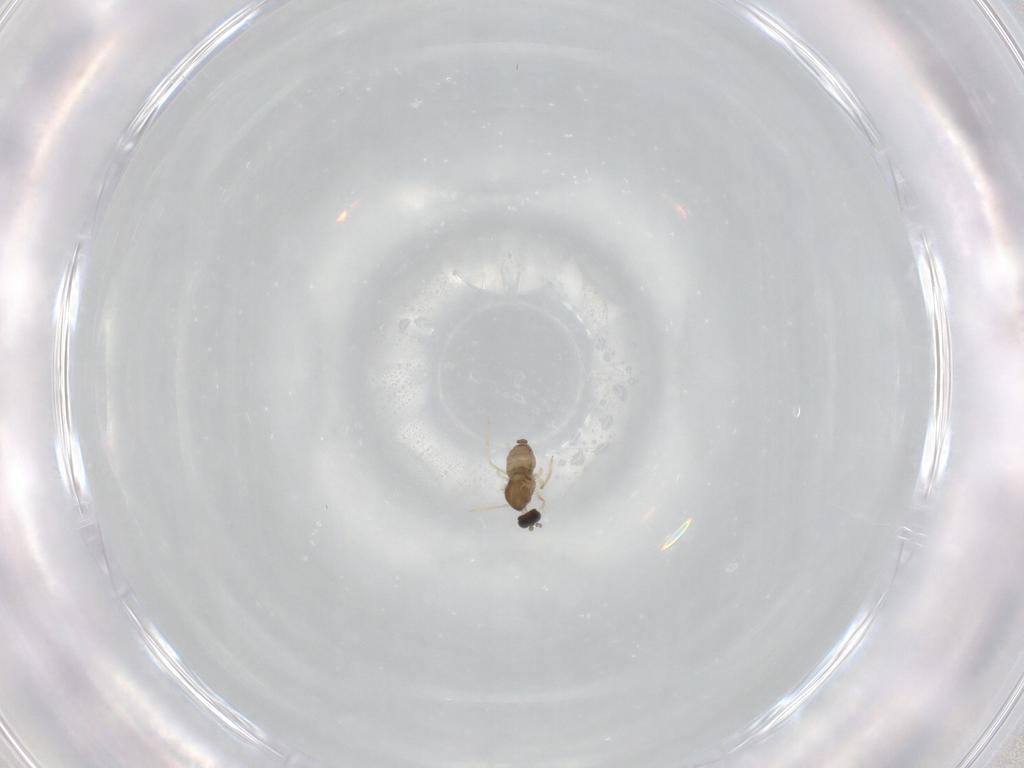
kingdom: Animalia
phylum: Arthropoda
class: Insecta
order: Diptera
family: Cecidomyiidae
